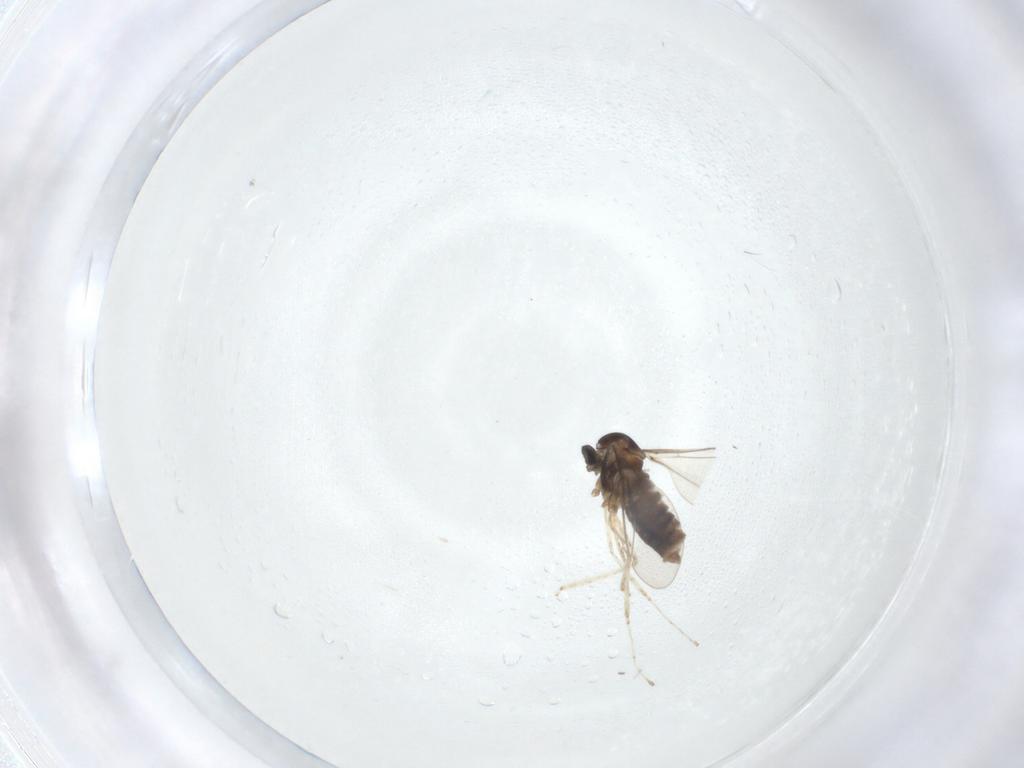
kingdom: Animalia
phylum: Arthropoda
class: Insecta
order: Diptera
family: Cecidomyiidae
